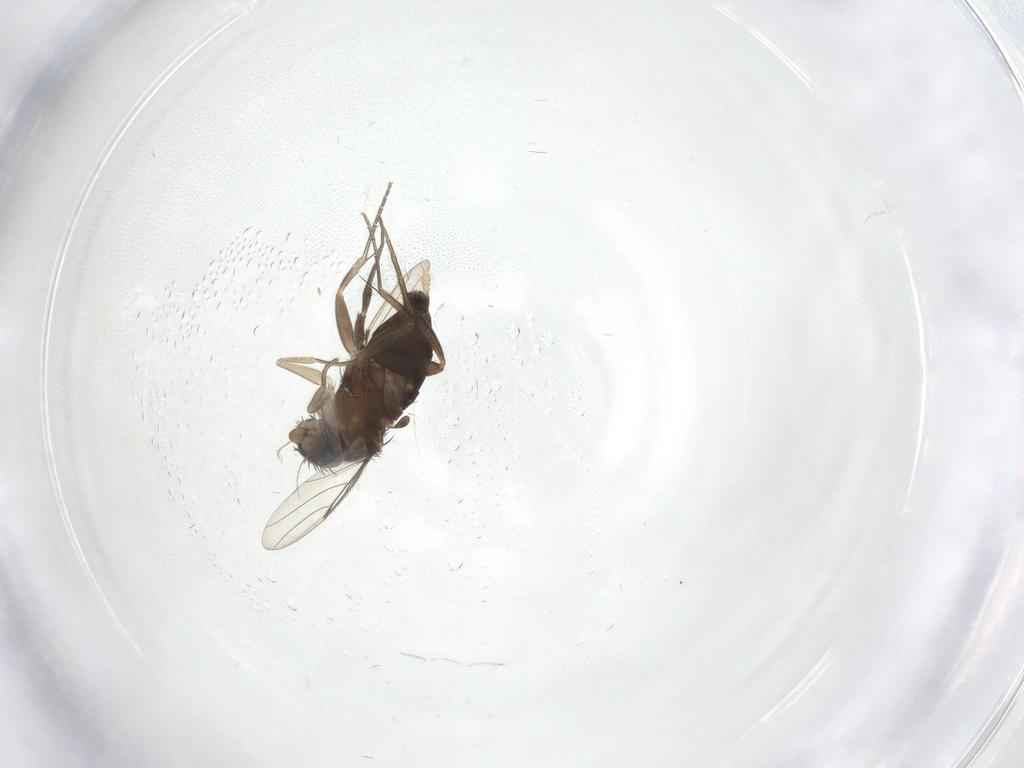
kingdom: Animalia
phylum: Arthropoda
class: Insecta
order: Diptera
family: Phoridae
